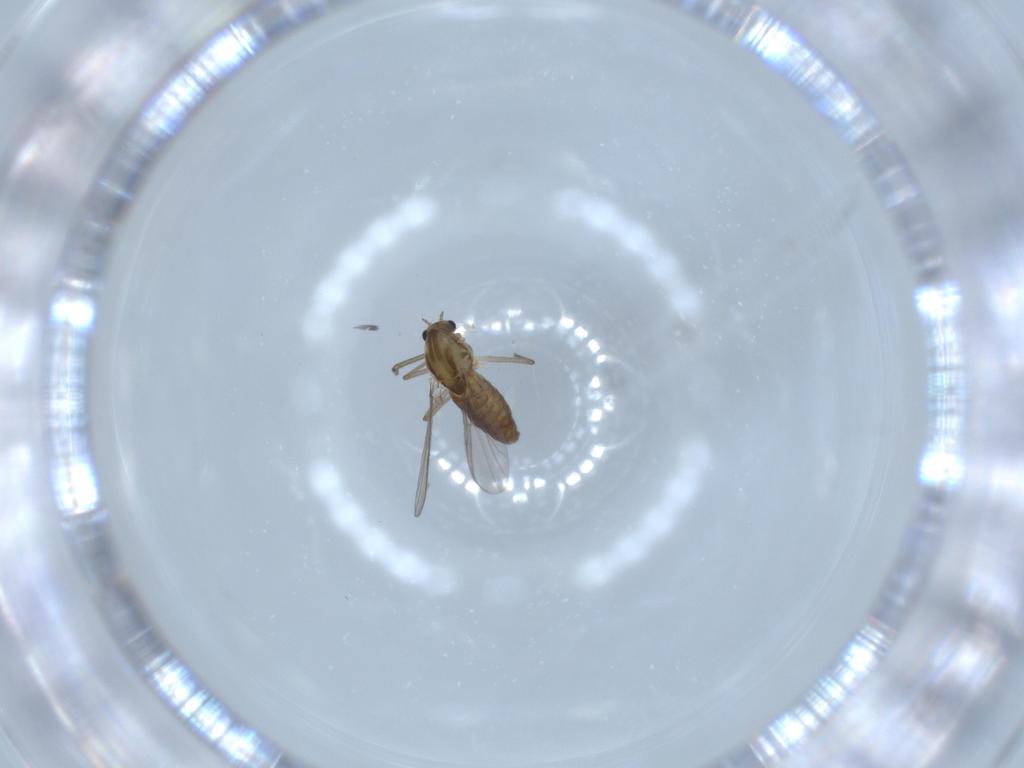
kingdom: Animalia
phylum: Arthropoda
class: Insecta
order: Diptera
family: Chironomidae
